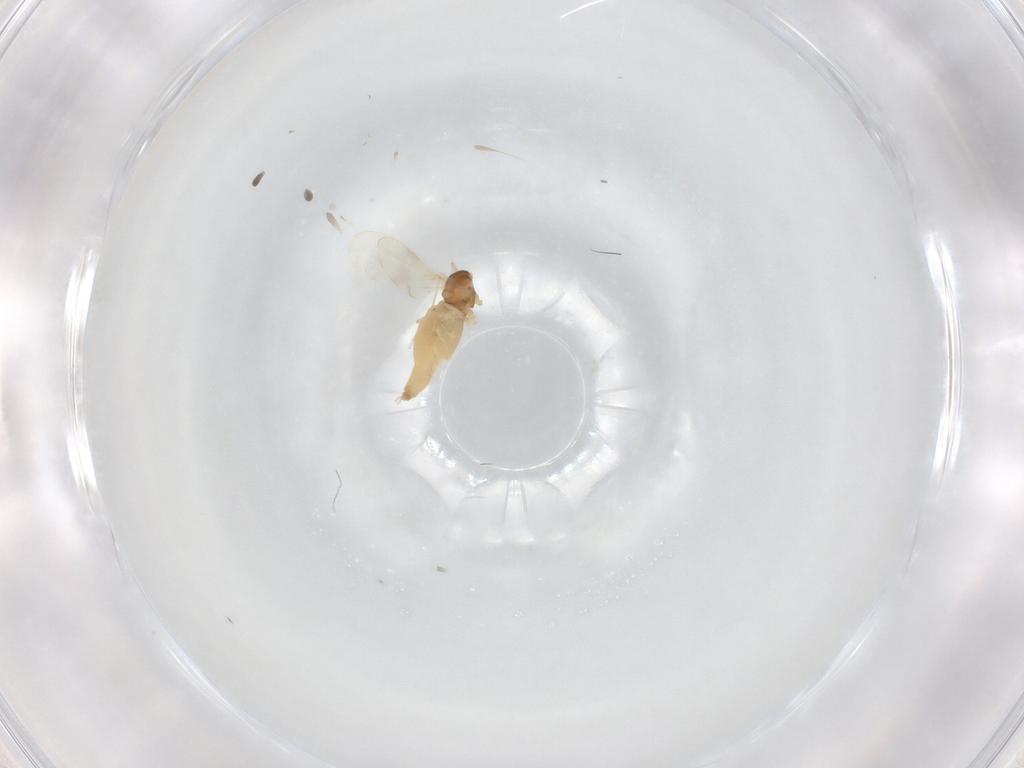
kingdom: Animalia
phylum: Arthropoda
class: Insecta
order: Diptera
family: Cecidomyiidae
